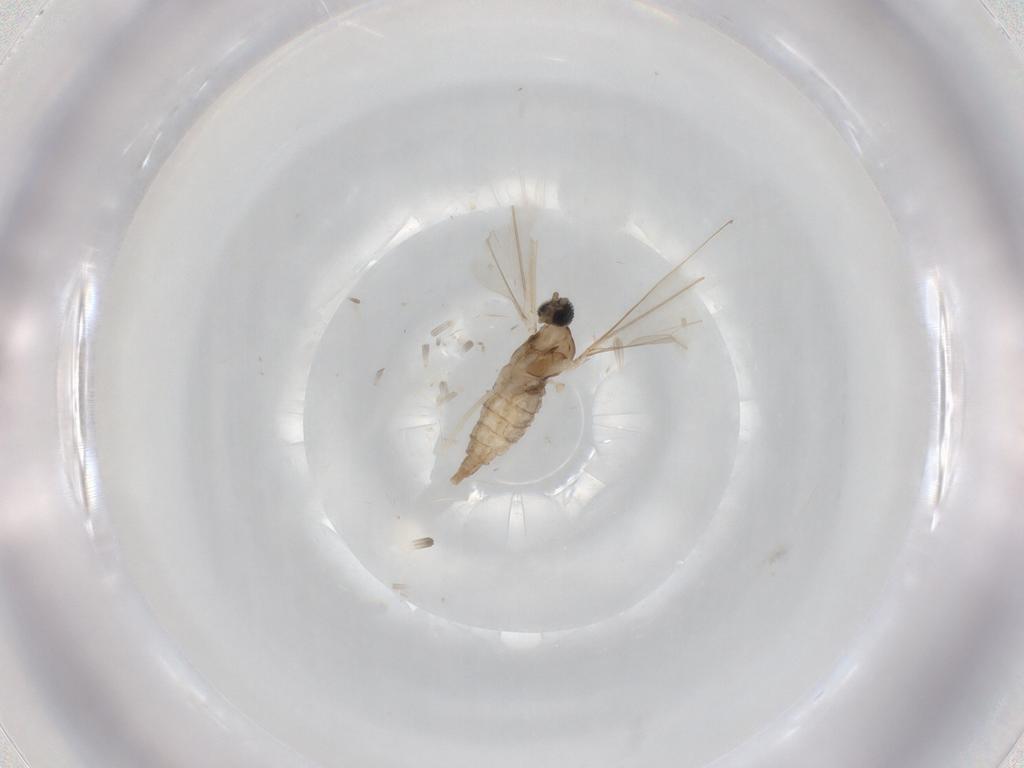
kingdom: Animalia
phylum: Arthropoda
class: Insecta
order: Diptera
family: Cecidomyiidae
